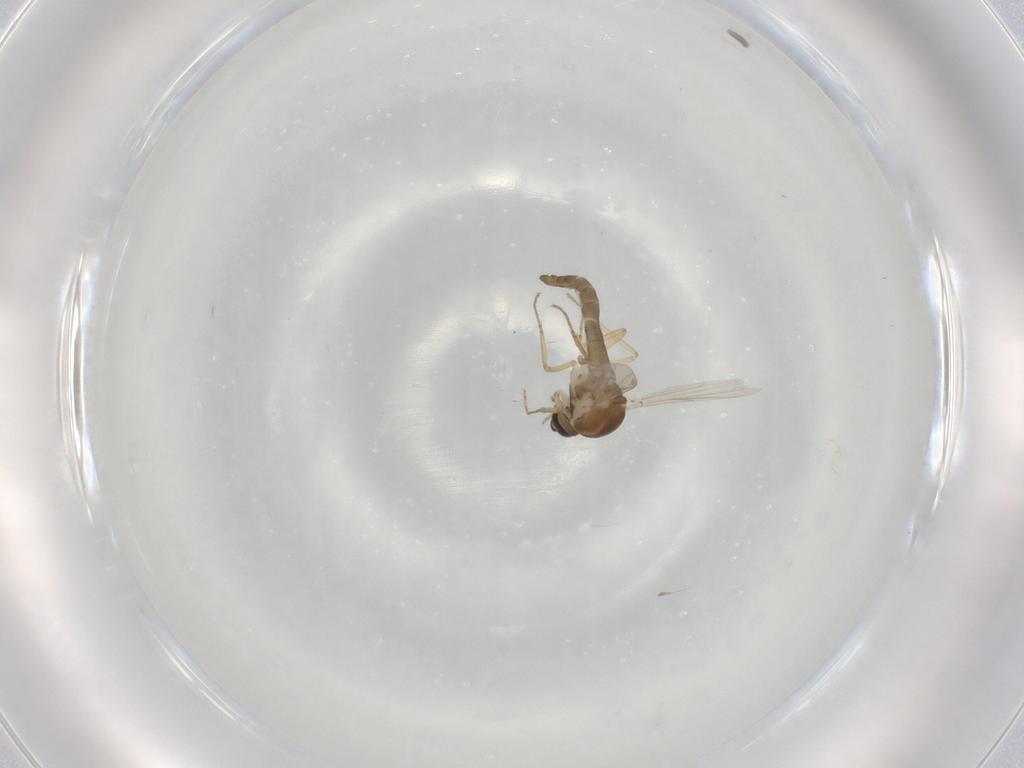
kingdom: Animalia
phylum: Arthropoda
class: Insecta
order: Diptera
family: Ceratopogonidae
